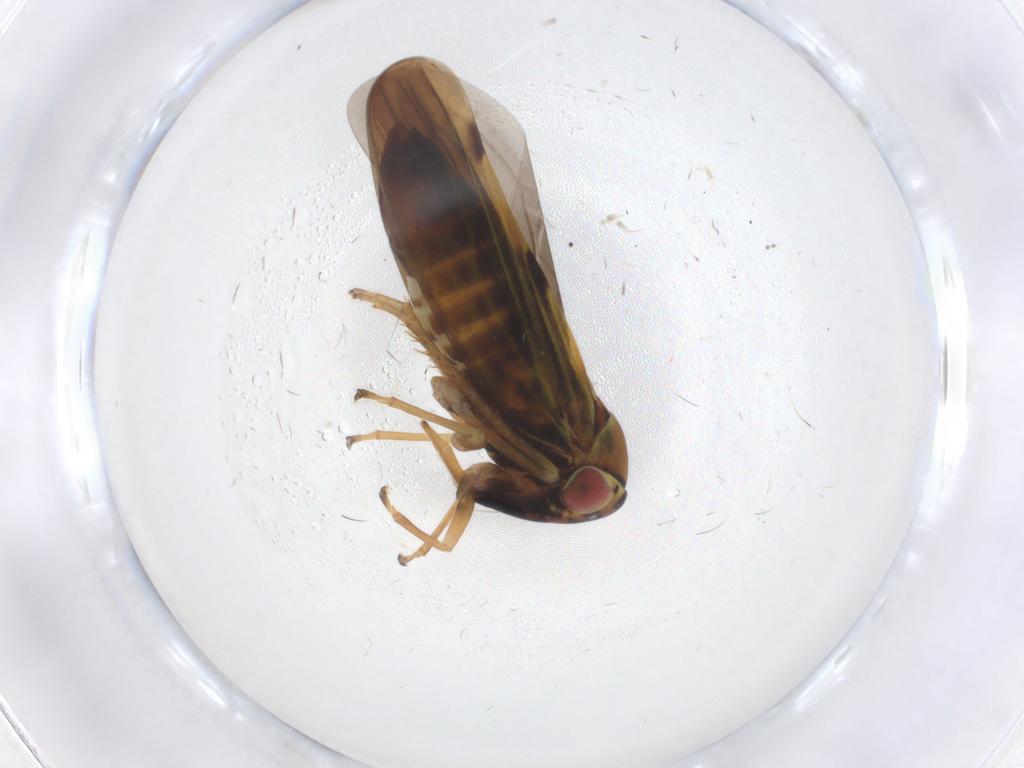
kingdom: Animalia
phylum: Arthropoda
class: Insecta
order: Hemiptera
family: Cicadellidae
